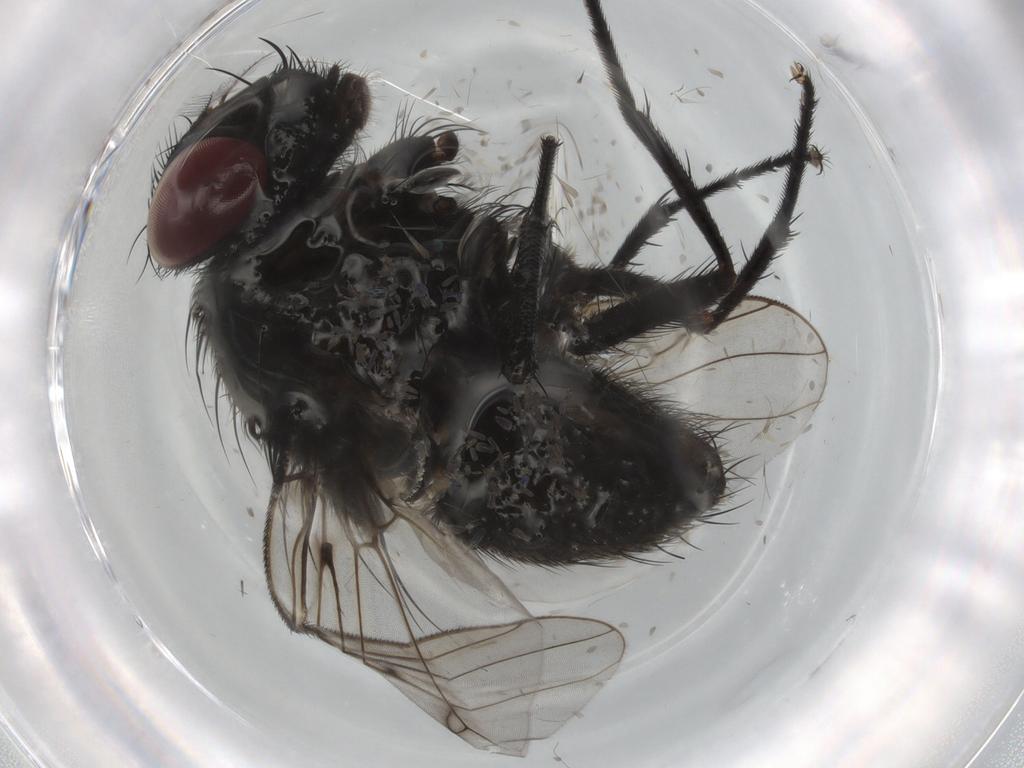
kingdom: Animalia
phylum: Arthropoda
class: Insecta
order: Diptera
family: Muscidae
